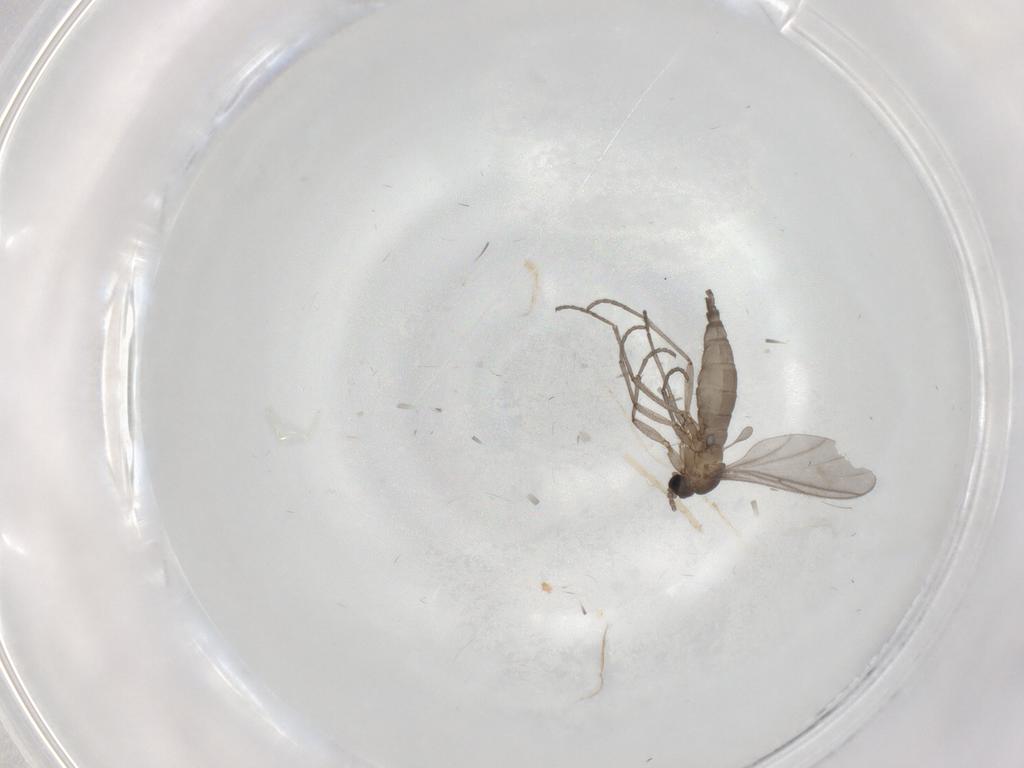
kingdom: Animalia
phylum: Arthropoda
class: Insecta
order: Diptera
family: Sciaridae
